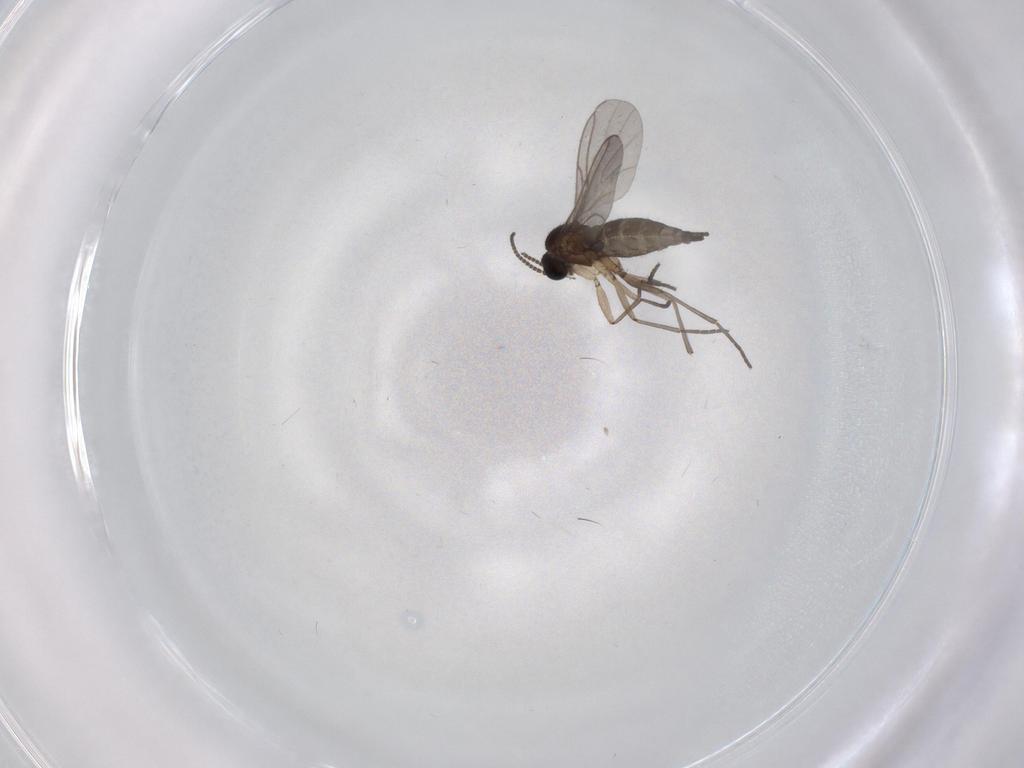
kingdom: Animalia
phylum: Arthropoda
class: Insecta
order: Diptera
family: Sciaridae
